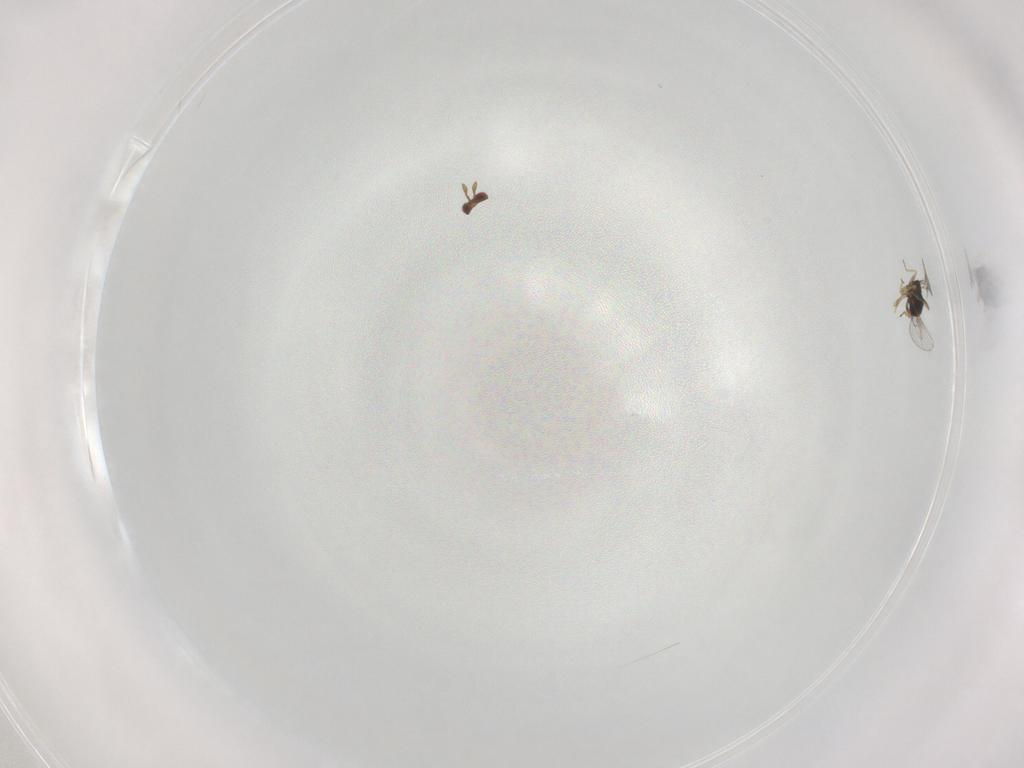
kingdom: Animalia
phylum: Arthropoda
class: Insecta
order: Hymenoptera
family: Trichogrammatidae
